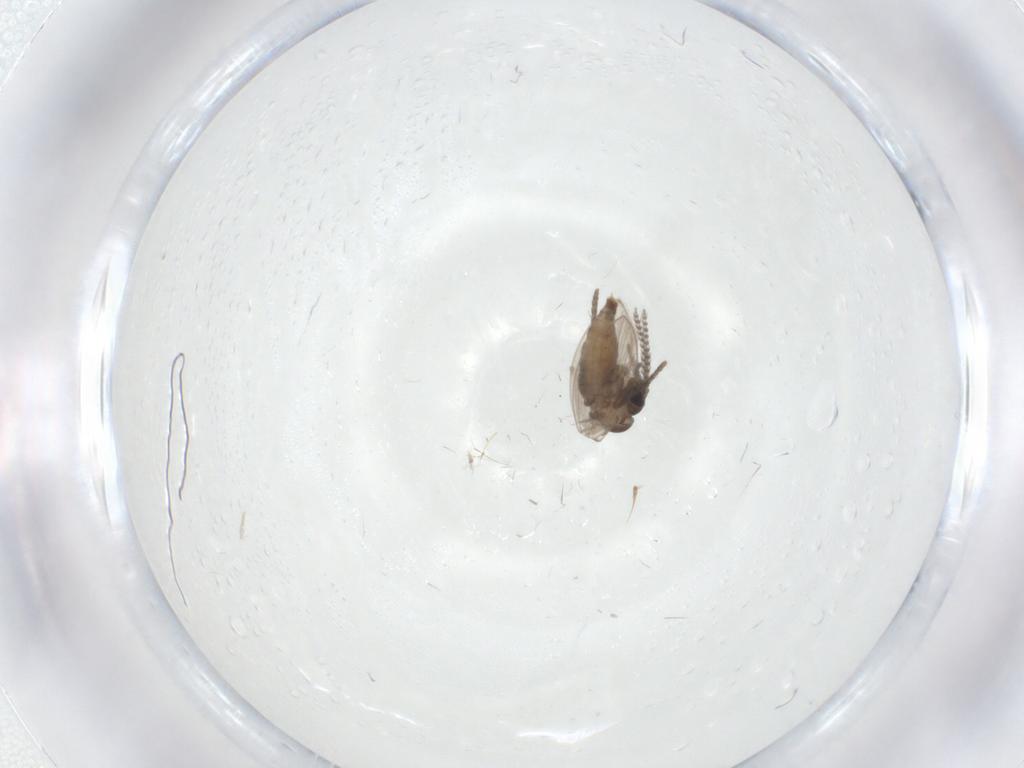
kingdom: Animalia
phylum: Arthropoda
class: Insecta
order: Diptera
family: Psychodidae
